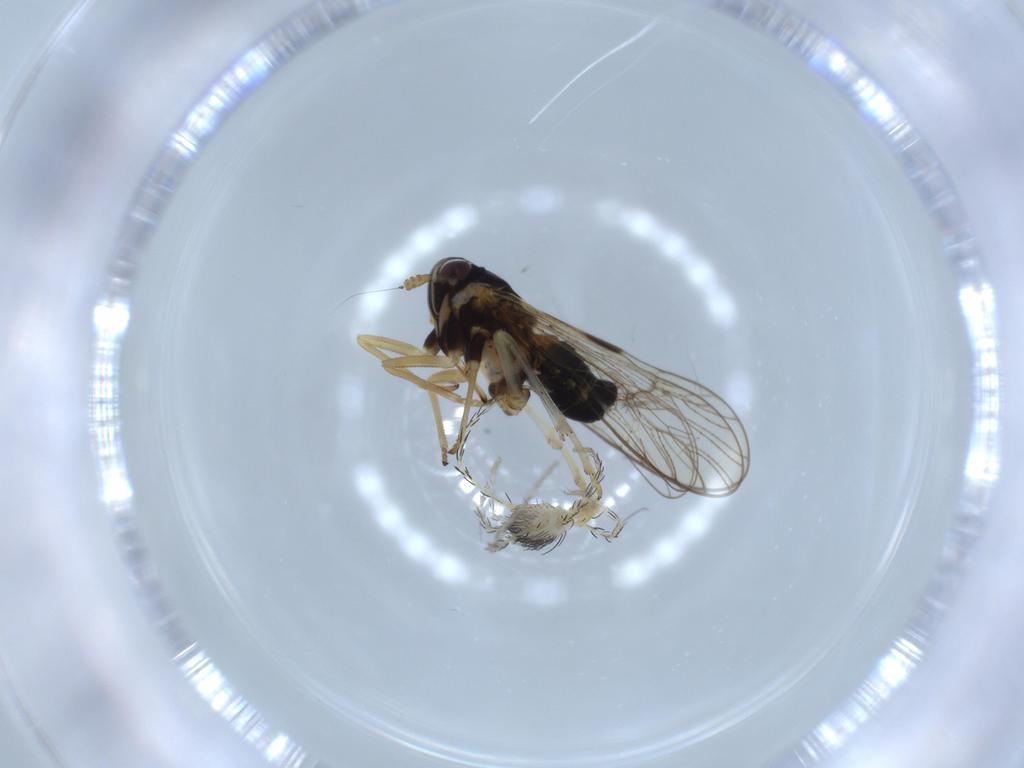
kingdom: Animalia
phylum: Arthropoda
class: Arachnida
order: Trombidiformes
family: Erythraeidae
